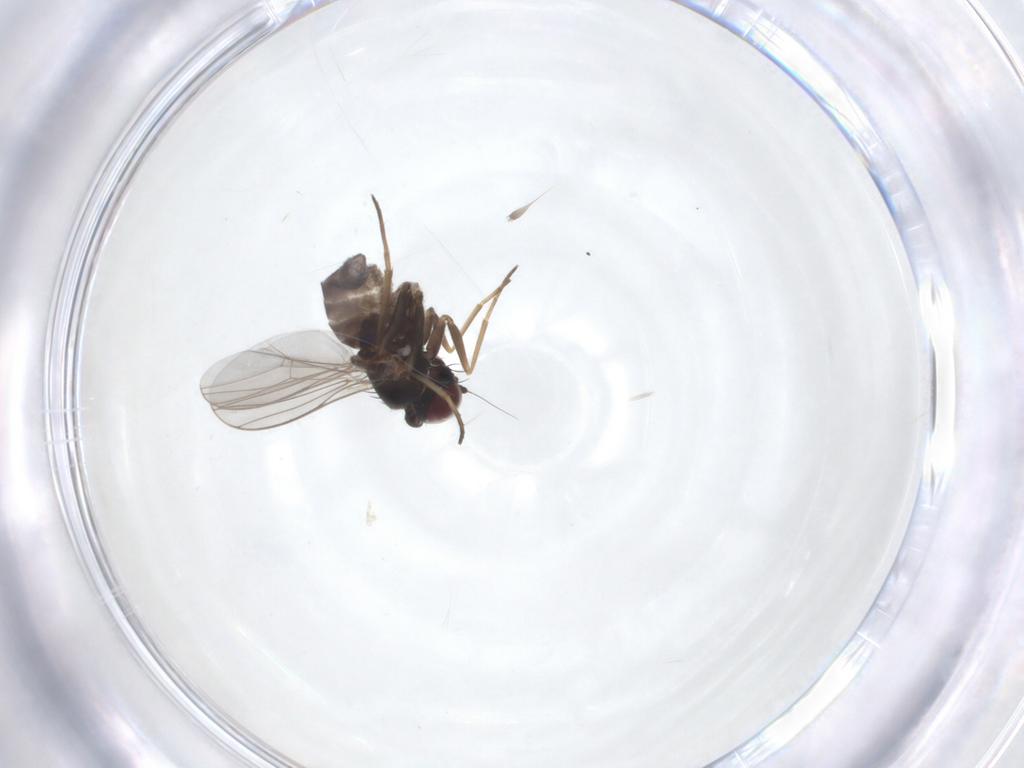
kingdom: Animalia
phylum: Arthropoda
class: Insecta
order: Diptera
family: Dolichopodidae
